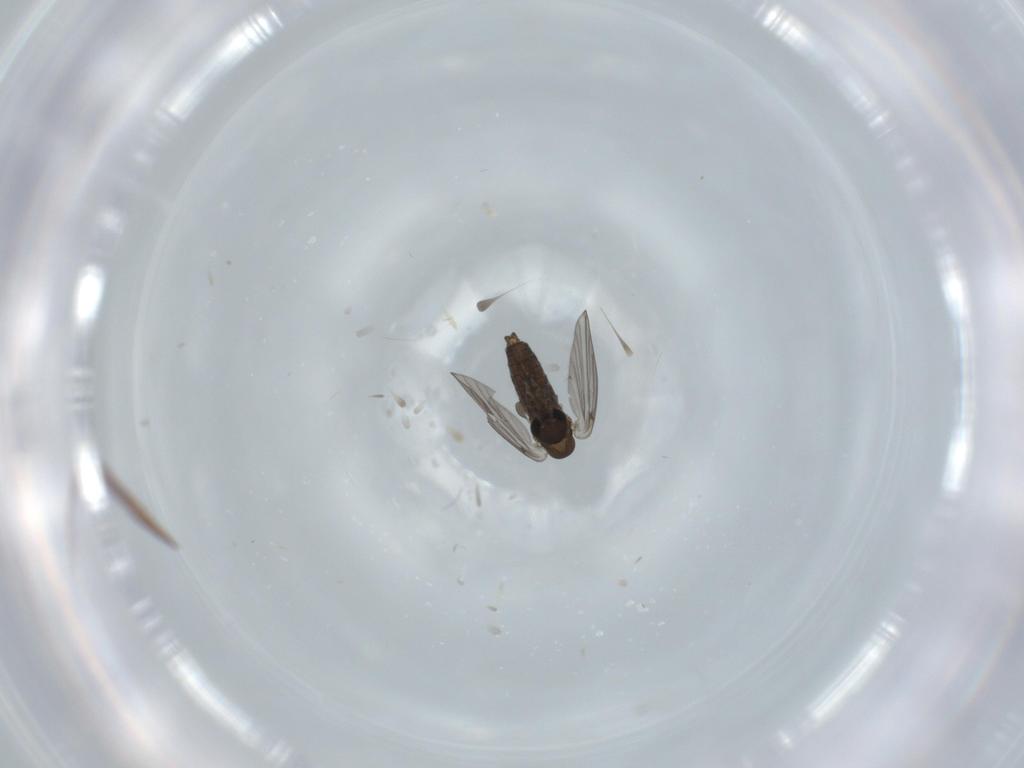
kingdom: Animalia
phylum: Arthropoda
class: Insecta
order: Diptera
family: Psychodidae
